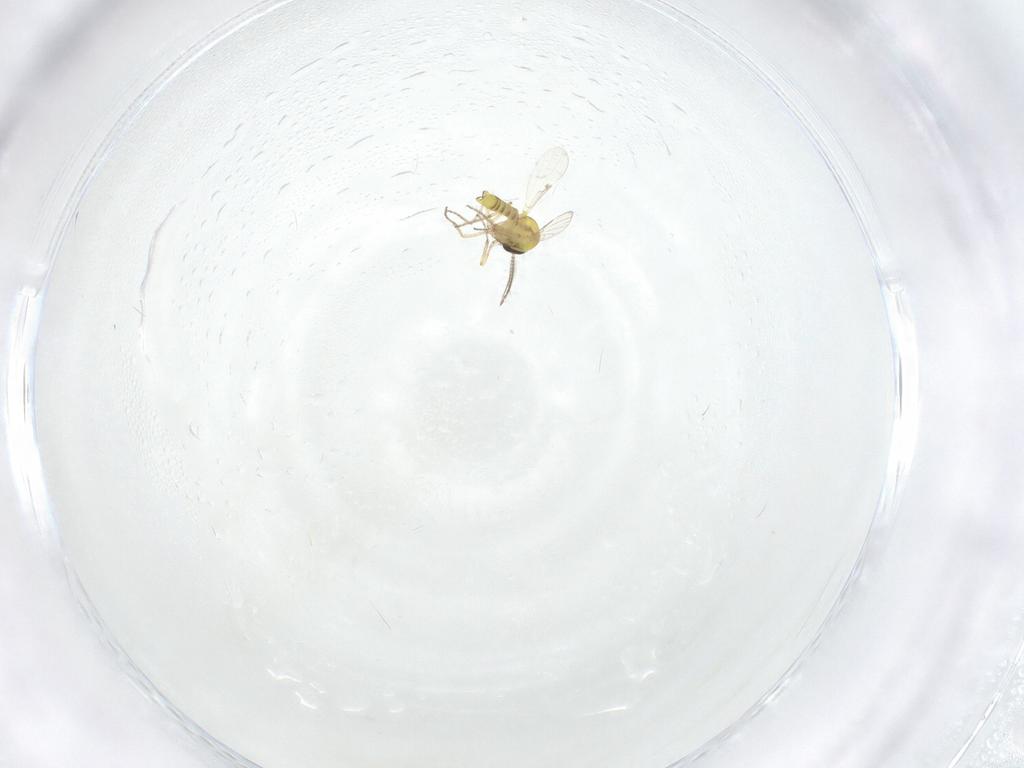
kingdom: Animalia
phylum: Arthropoda
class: Insecta
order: Diptera
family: Ceratopogonidae
